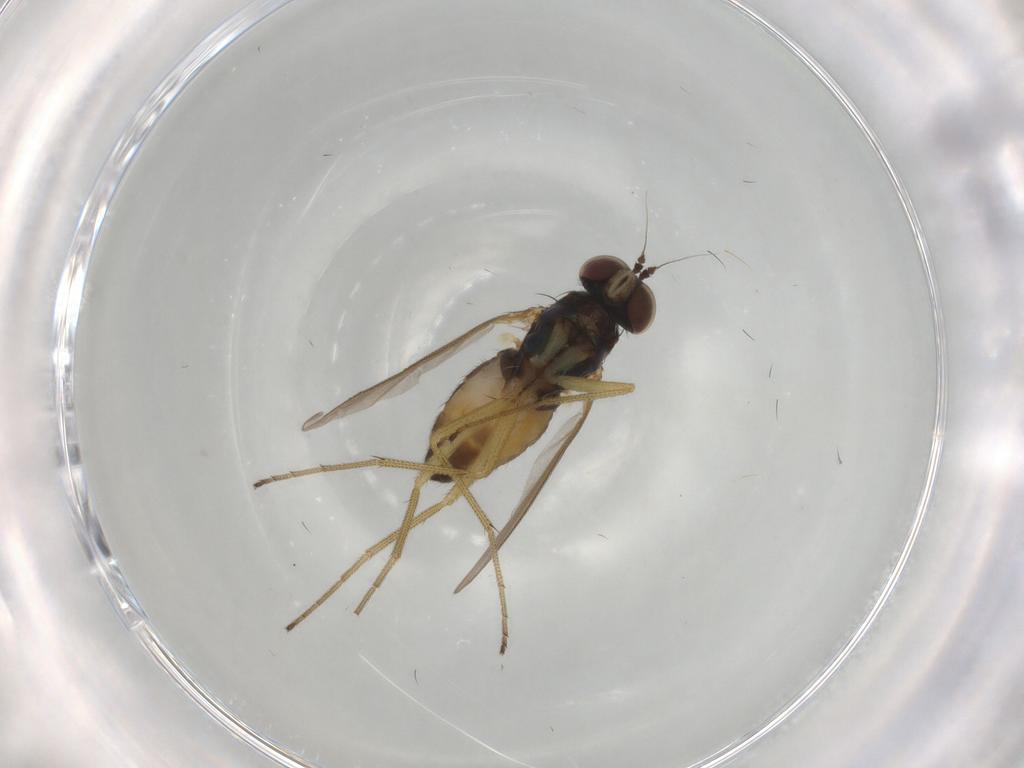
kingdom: Animalia
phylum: Arthropoda
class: Insecta
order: Diptera
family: Dolichopodidae
